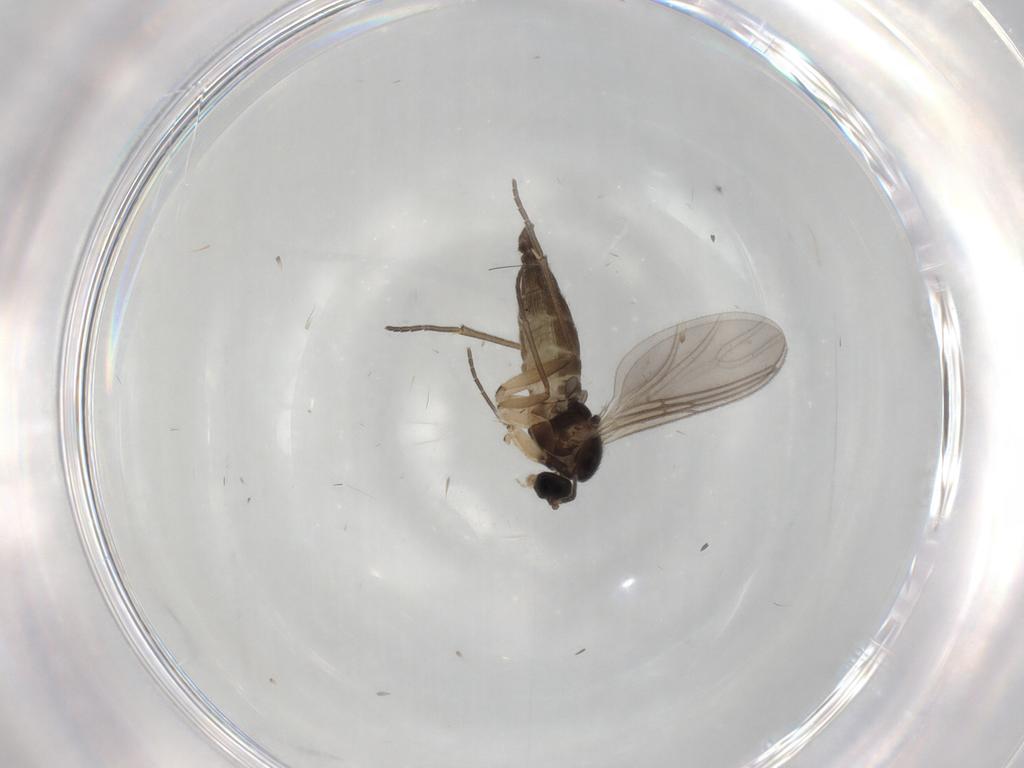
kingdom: Animalia
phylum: Arthropoda
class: Insecta
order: Diptera
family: Sciaridae
